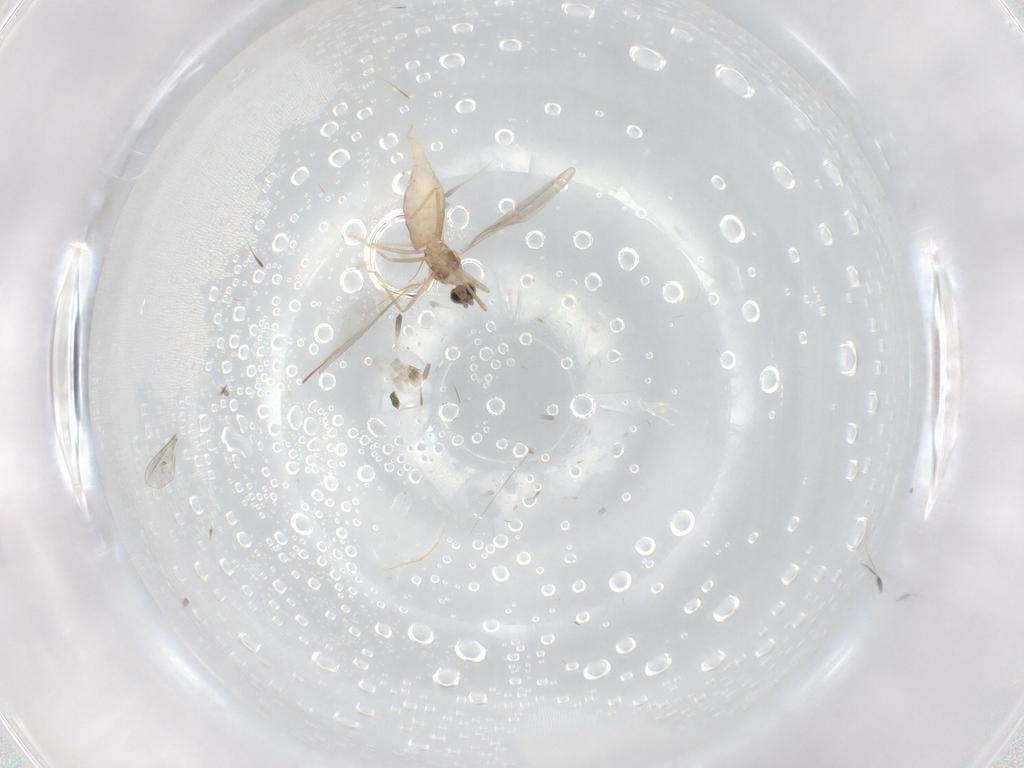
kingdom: Animalia
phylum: Arthropoda
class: Insecta
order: Diptera
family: Cecidomyiidae
